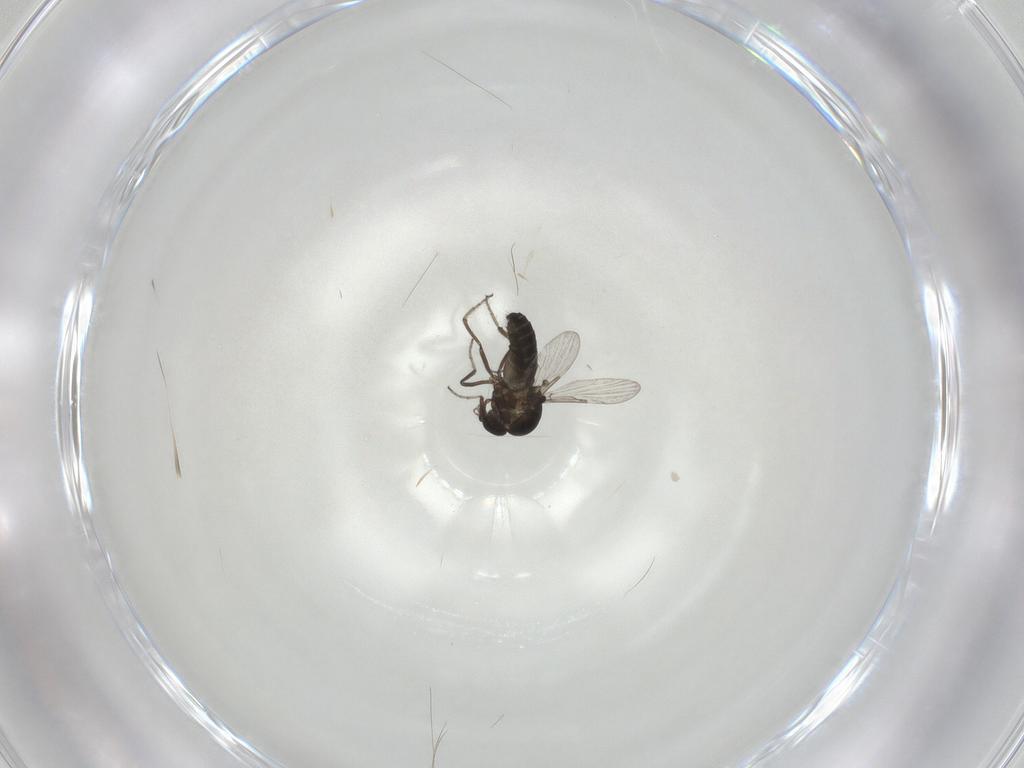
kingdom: Animalia
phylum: Arthropoda
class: Insecta
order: Diptera
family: Ceratopogonidae
